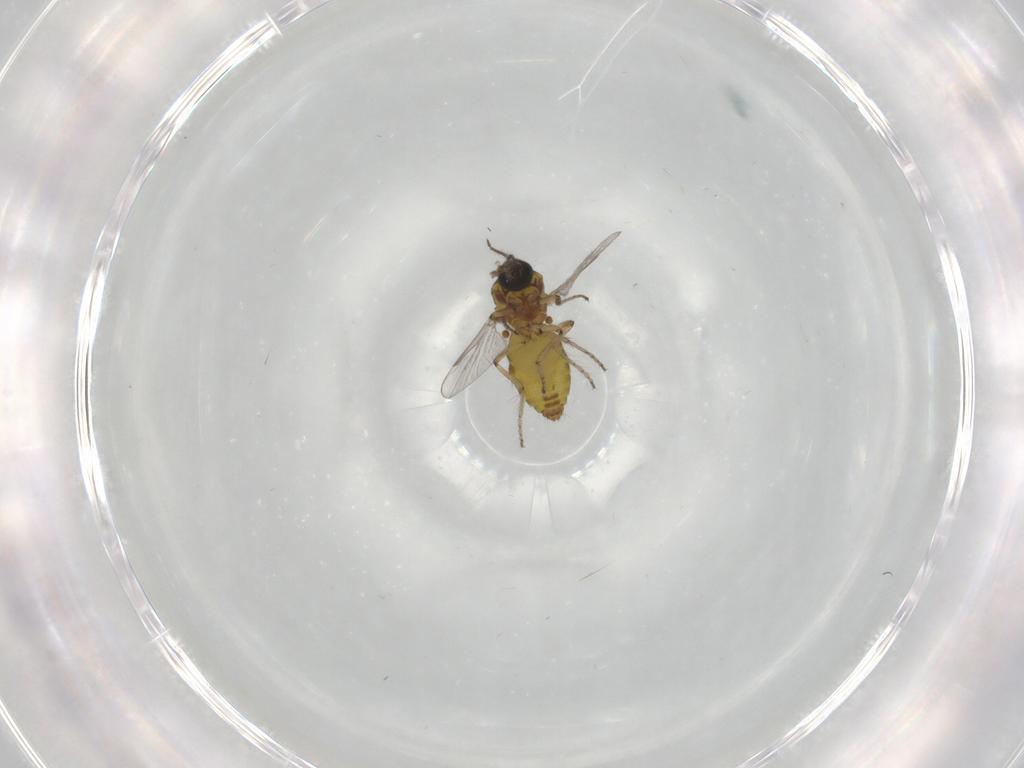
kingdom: Animalia
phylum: Arthropoda
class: Insecta
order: Diptera
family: Ceratopogonidae
